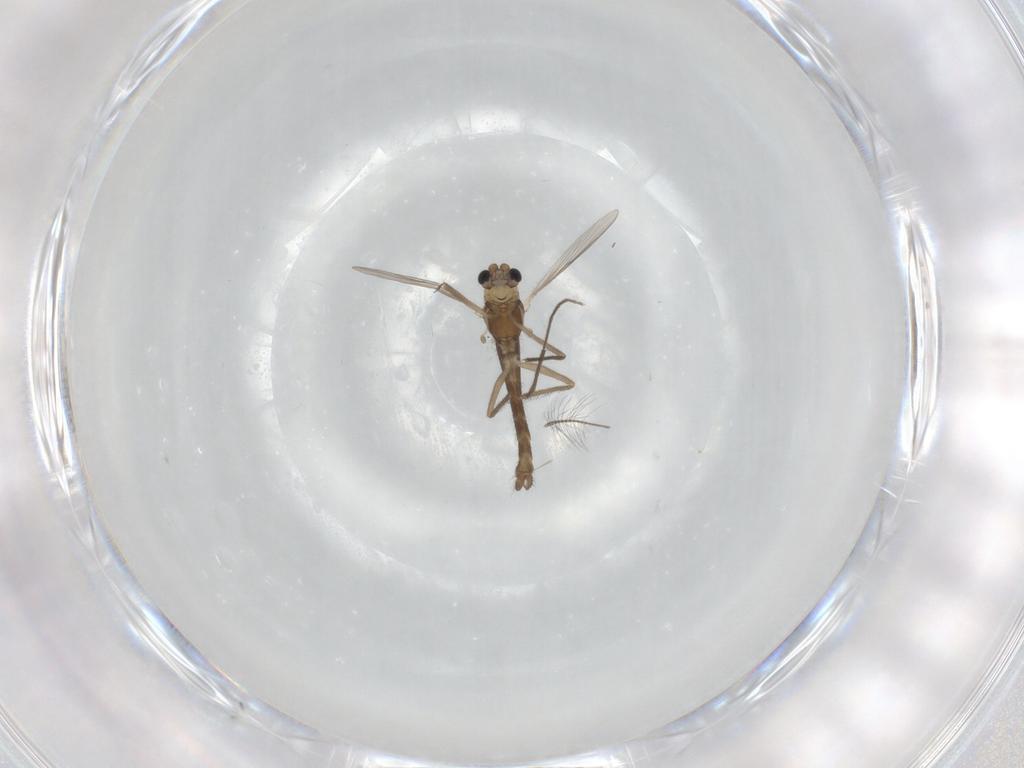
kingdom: Animalia
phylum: Arthropoda
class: Insecta
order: Diptera
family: Chironomidae
